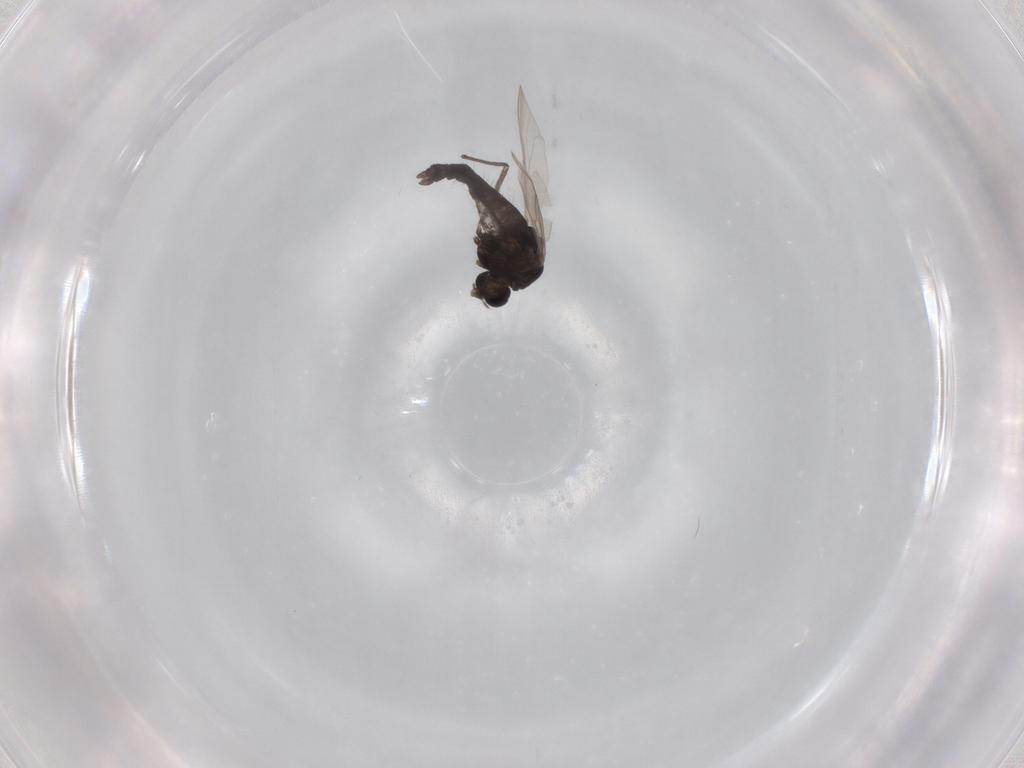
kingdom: Animalia
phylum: Arthropoda
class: Insecta
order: Diptera
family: Chironomidae
